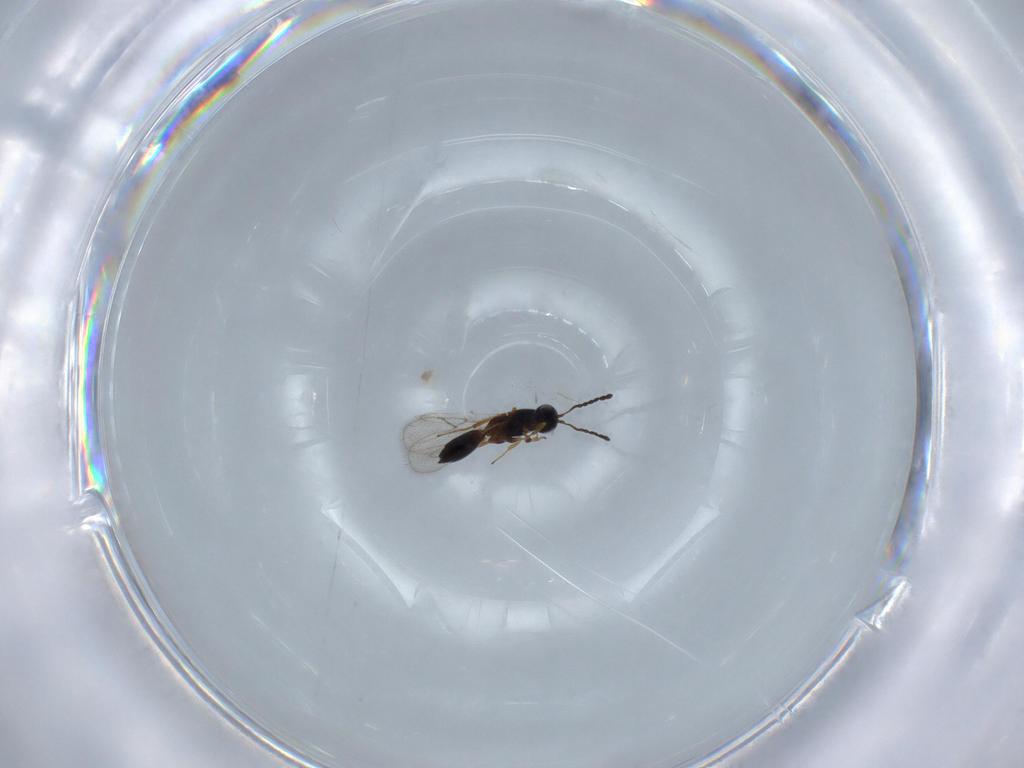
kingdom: Animalia
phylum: Arthropoda
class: Insecta
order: Hymenoptera
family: Figitidae
